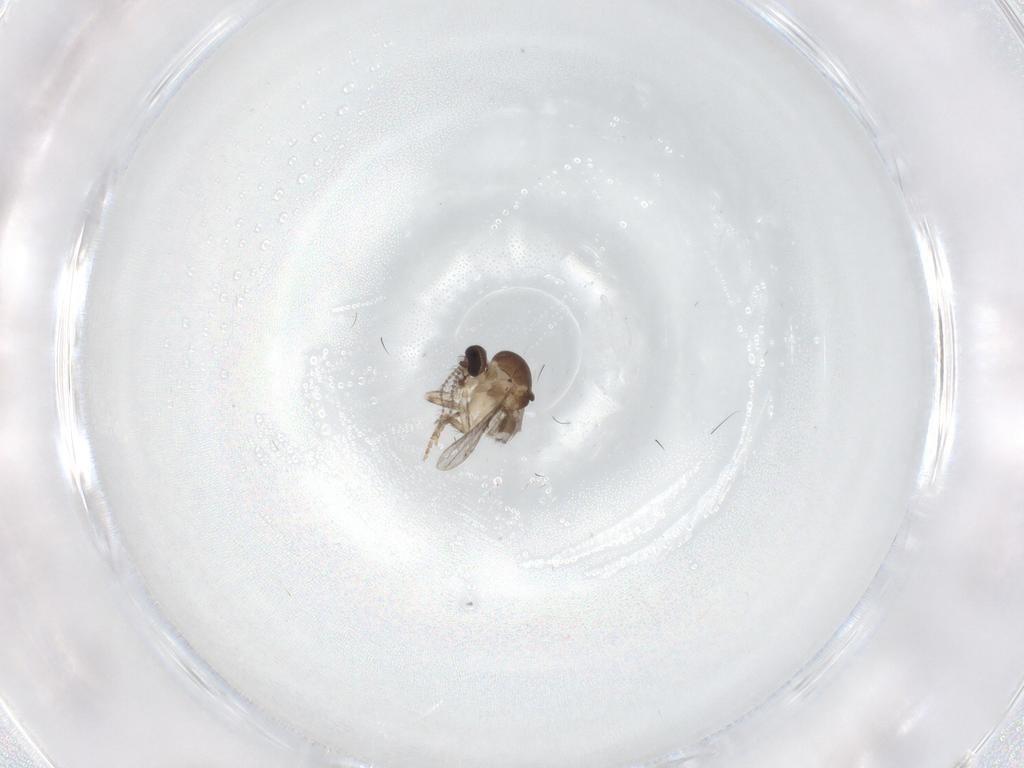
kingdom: Animalia
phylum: Arthropoda
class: Insecta
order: Diptera
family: Ceratopogonidae
